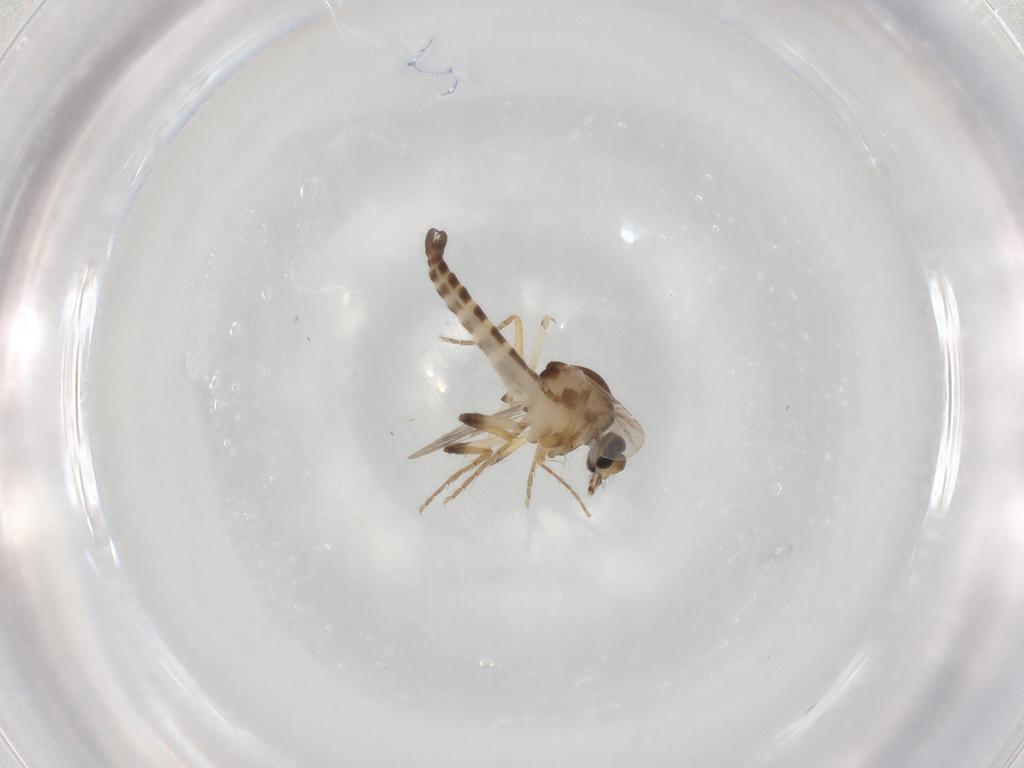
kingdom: Animalia
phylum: Arthropoda
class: Insecta
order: Diptera
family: Ceratopogonidae
